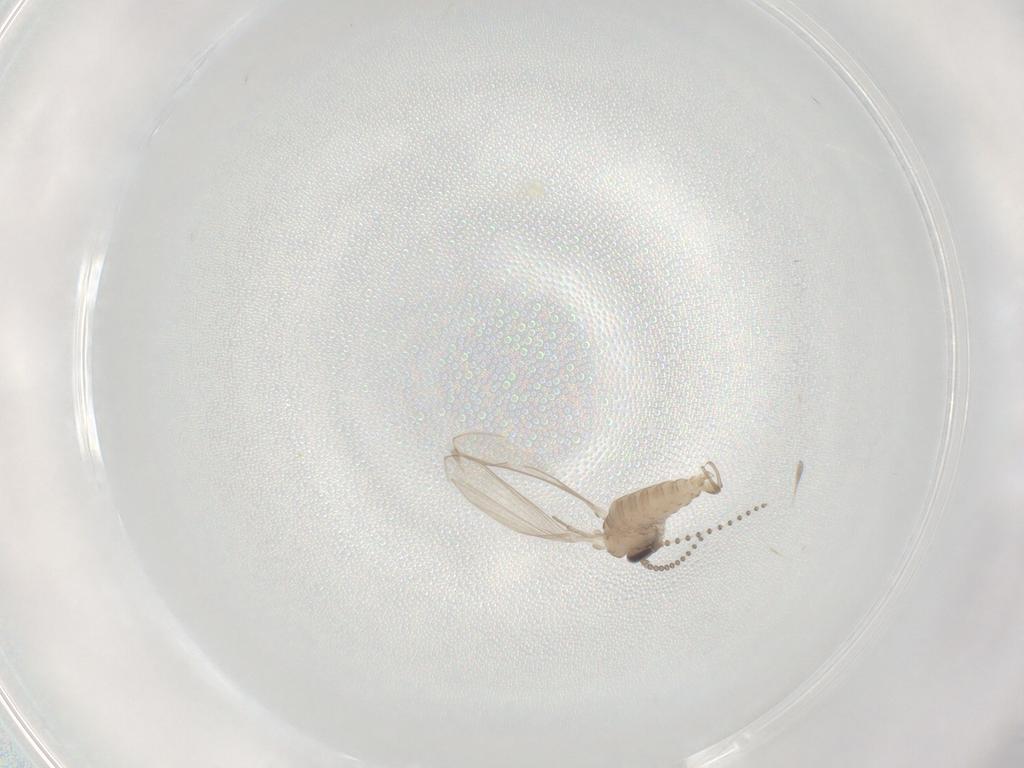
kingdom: Animalia
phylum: Arthropoda
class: Insecta
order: Diptera
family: Psychodidae
